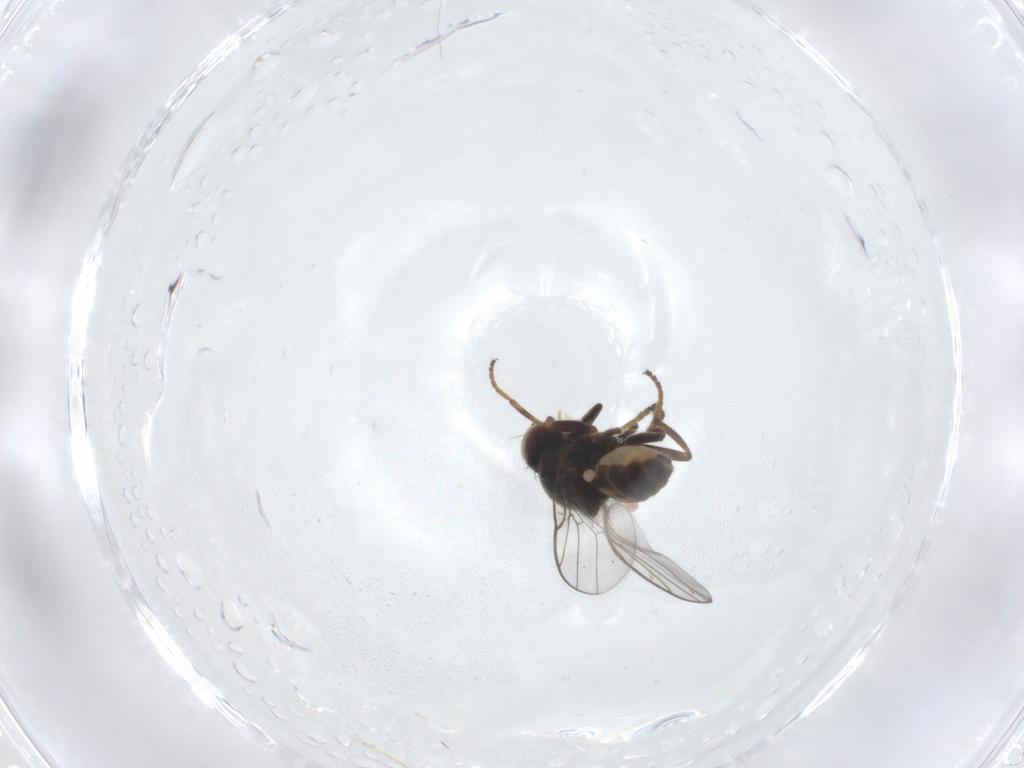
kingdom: Animalia
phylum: Arthropoda
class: Insecta
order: Diptera
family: Chloropidae
